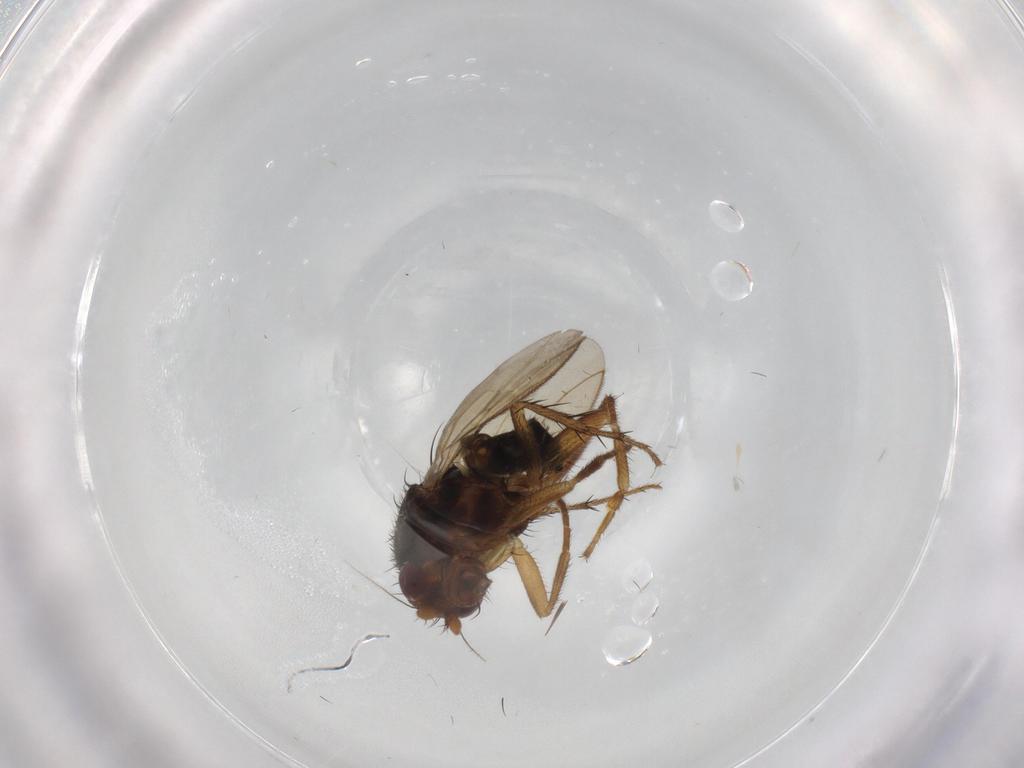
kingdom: Animalia
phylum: Arthropoda
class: Insecta
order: Diptera
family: Sphaeroceridae
